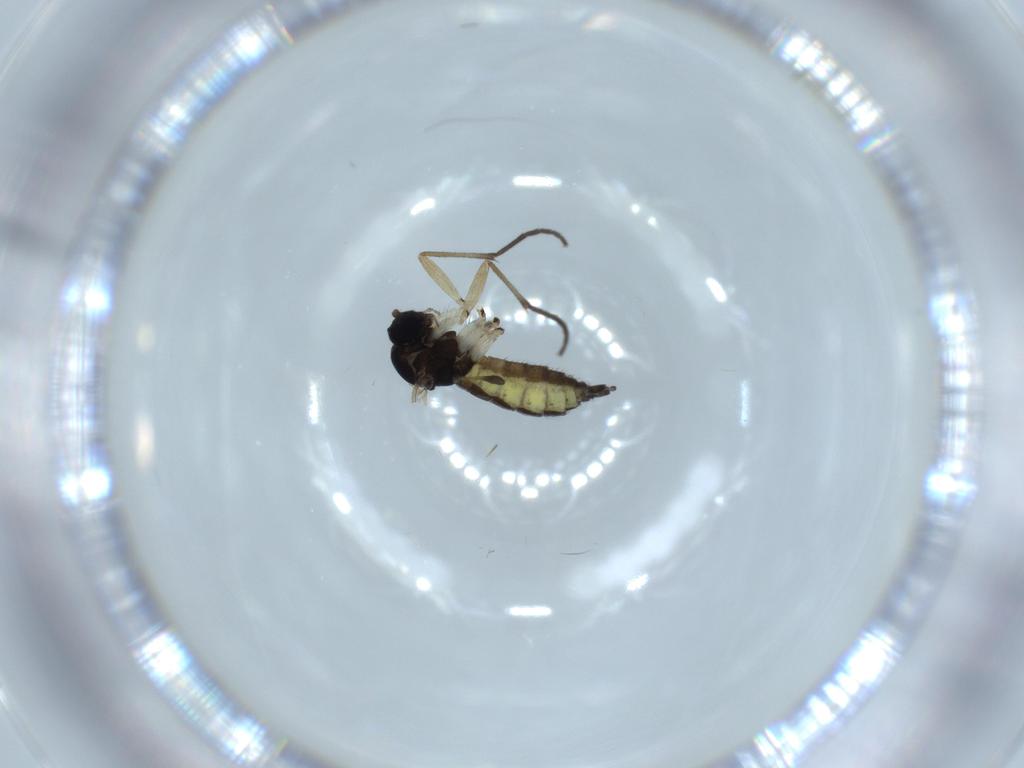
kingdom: Animalia
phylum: Arthropoda
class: Insecta
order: Diptera
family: Sciaridae
